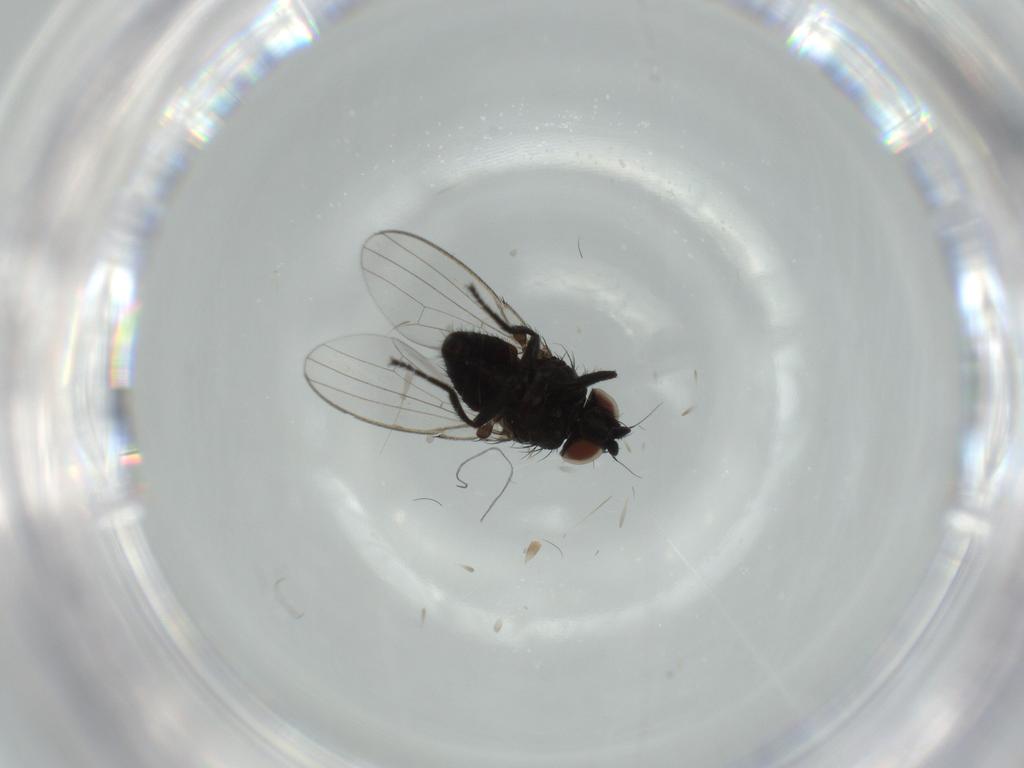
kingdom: Animalia
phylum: Arthropoda
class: Insecta
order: Diptera
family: Milichiidae
